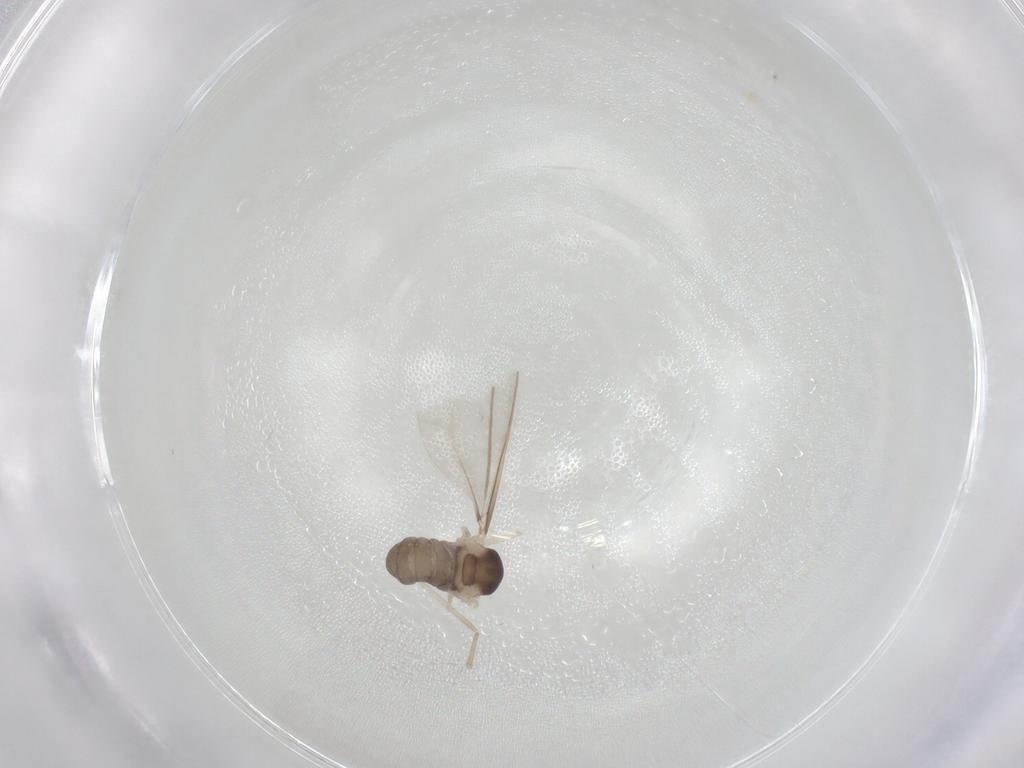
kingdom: Animalia
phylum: Arthropoda
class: Insecta
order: Diptera
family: Cecidomyiidae
